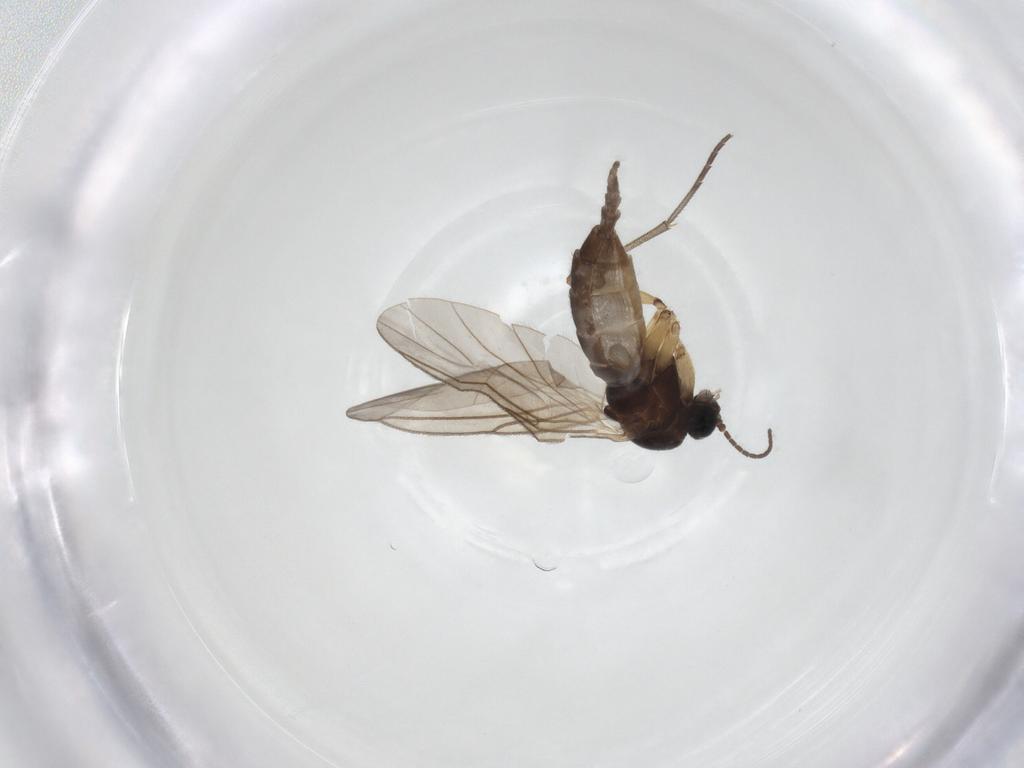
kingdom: Animalia
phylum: Arthropoda
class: Insecta
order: Diptera
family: Sciaridae
